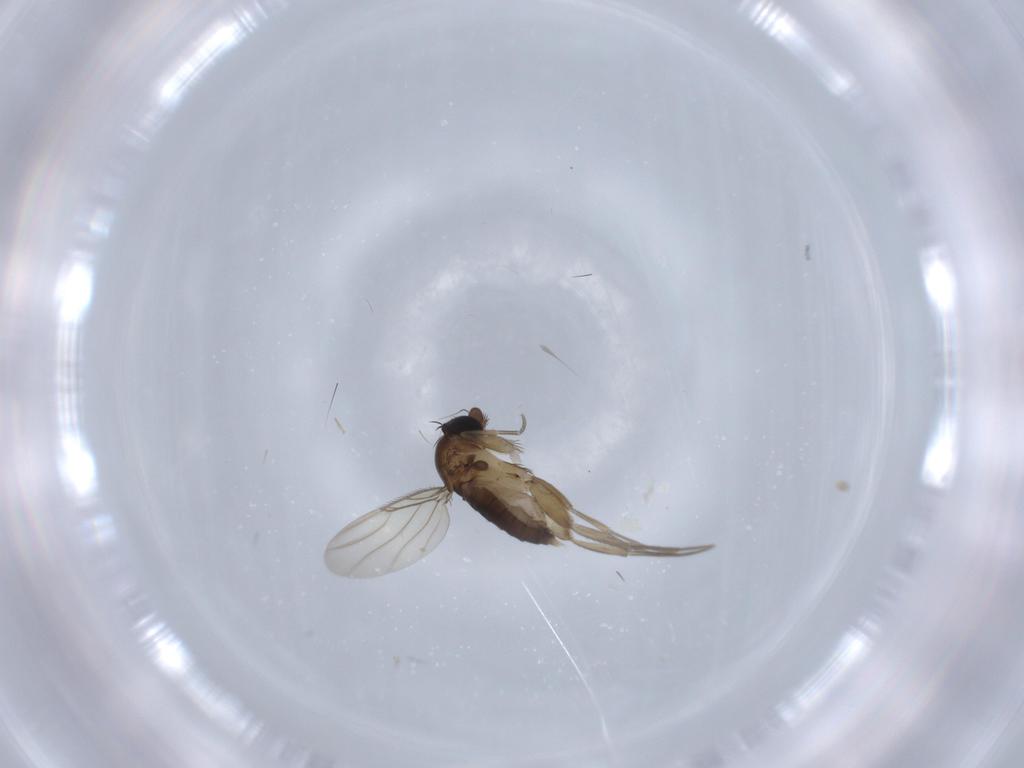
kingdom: Animalia
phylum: Arthropoda
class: Insecta
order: Diptera
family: Phoridae
